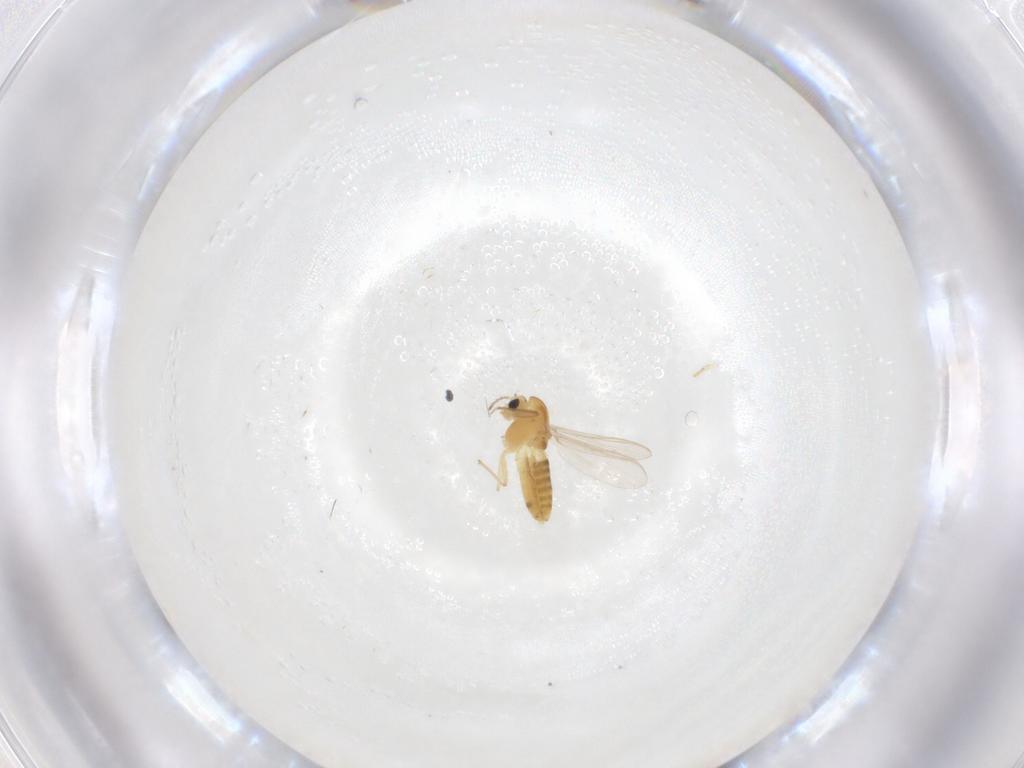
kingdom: Animalia
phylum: Arthropoda
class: Insecta
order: Diptera
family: Chironomidae
